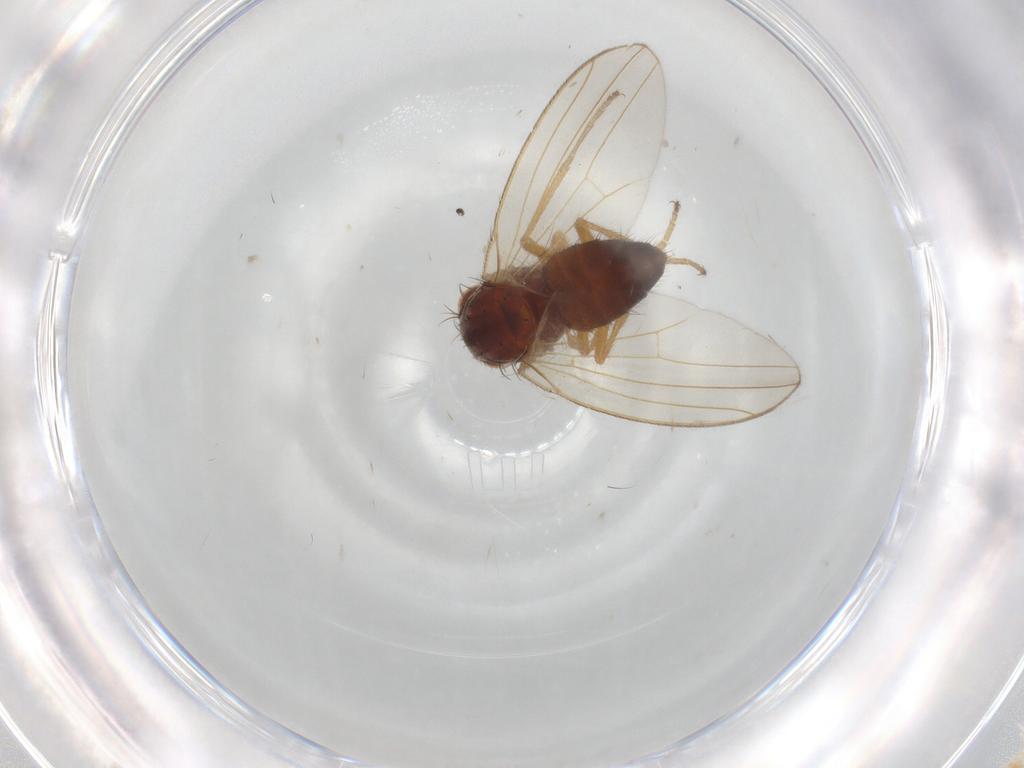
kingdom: Animalia
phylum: Arthropoda
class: Insecta
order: Diptera
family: Drosophilidae
